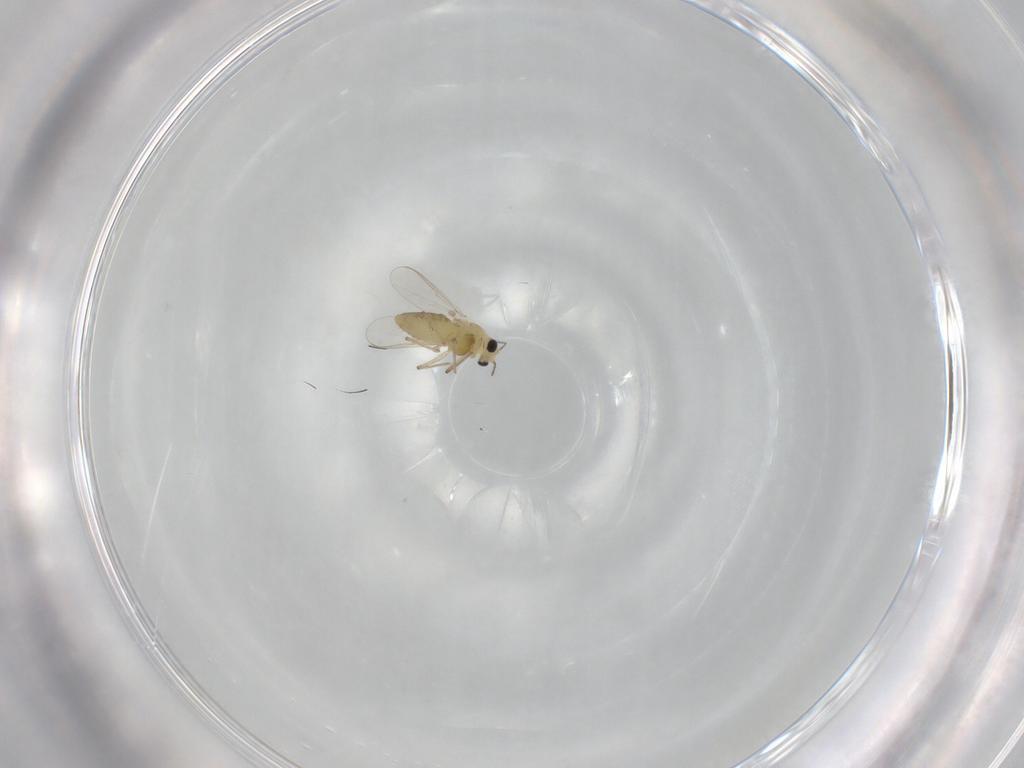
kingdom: Animalia
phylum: Arthropoda
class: Insecta
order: Diptera
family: Chironomidae
